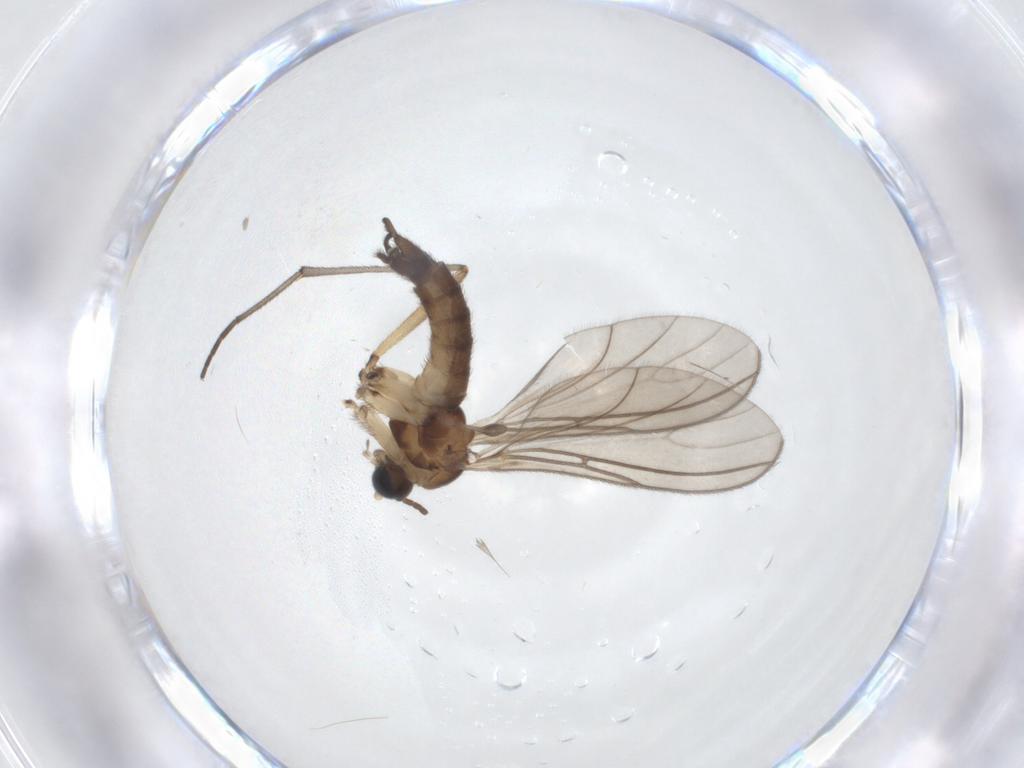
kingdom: Animalia
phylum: Arthropoda
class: Insecta
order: Diptera
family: Sciaridae
